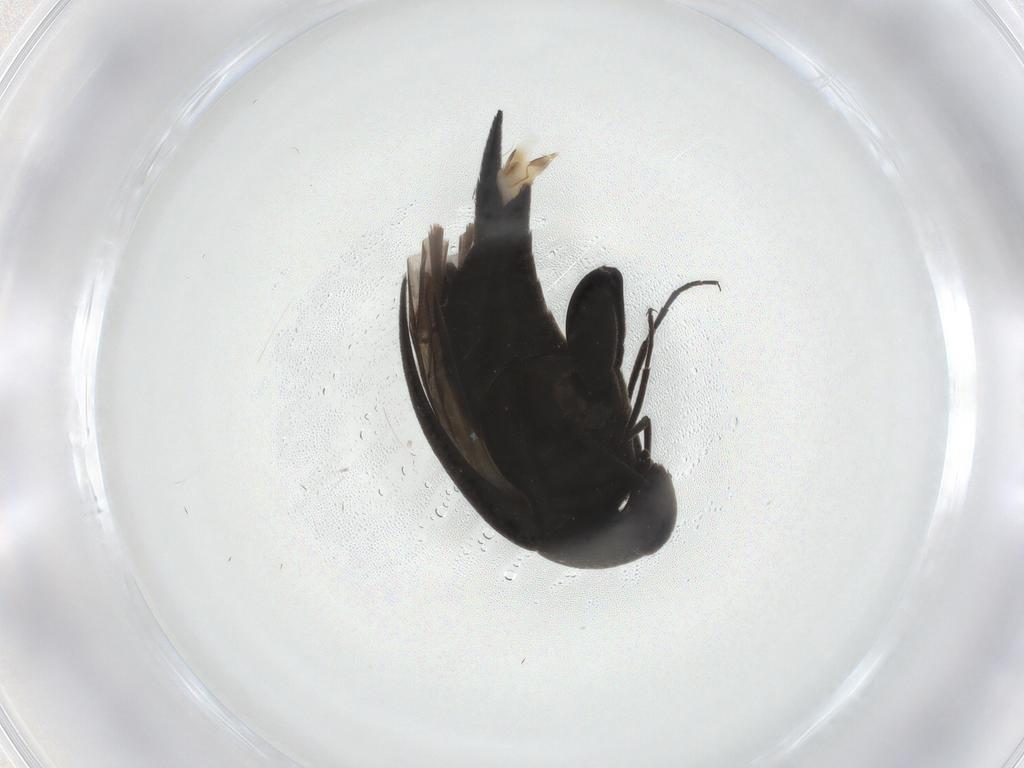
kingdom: Animalia
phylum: Arthropoda
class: Insecta
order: Coleoptera
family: Mordellidae
